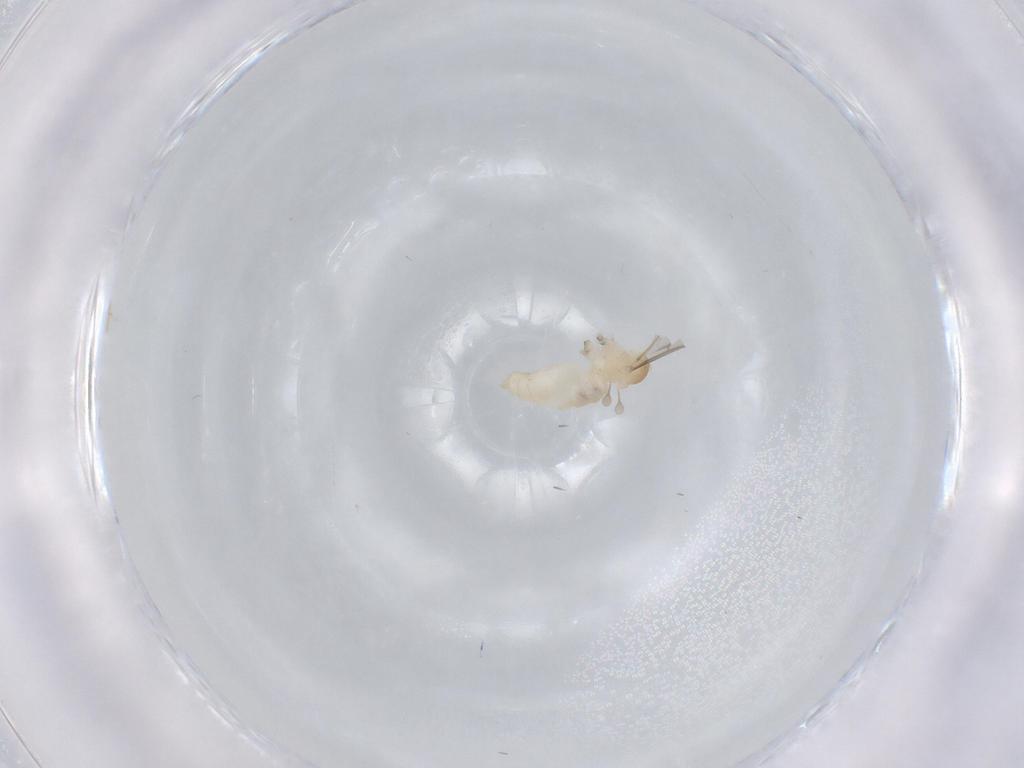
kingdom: Animalia
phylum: Arthropoda
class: Insecta
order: Diptera
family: Cecidomyiidae
